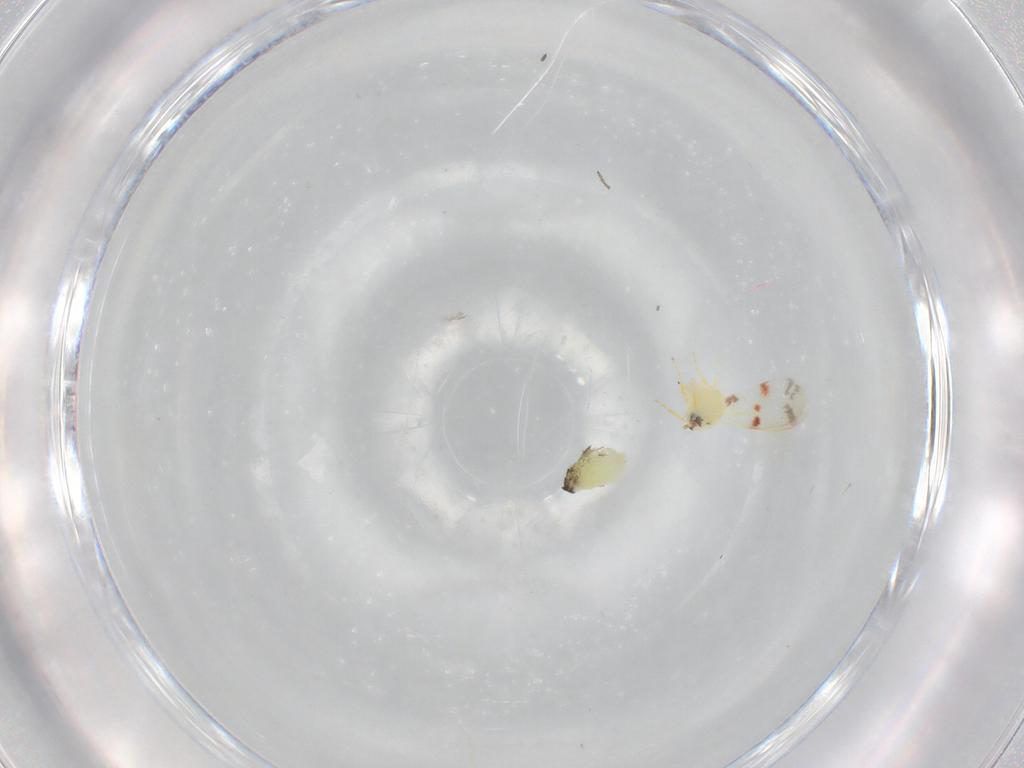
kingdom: Animalia
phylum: Arthropoda
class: Insecta
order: Hemiptera
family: Aleyrodidae
